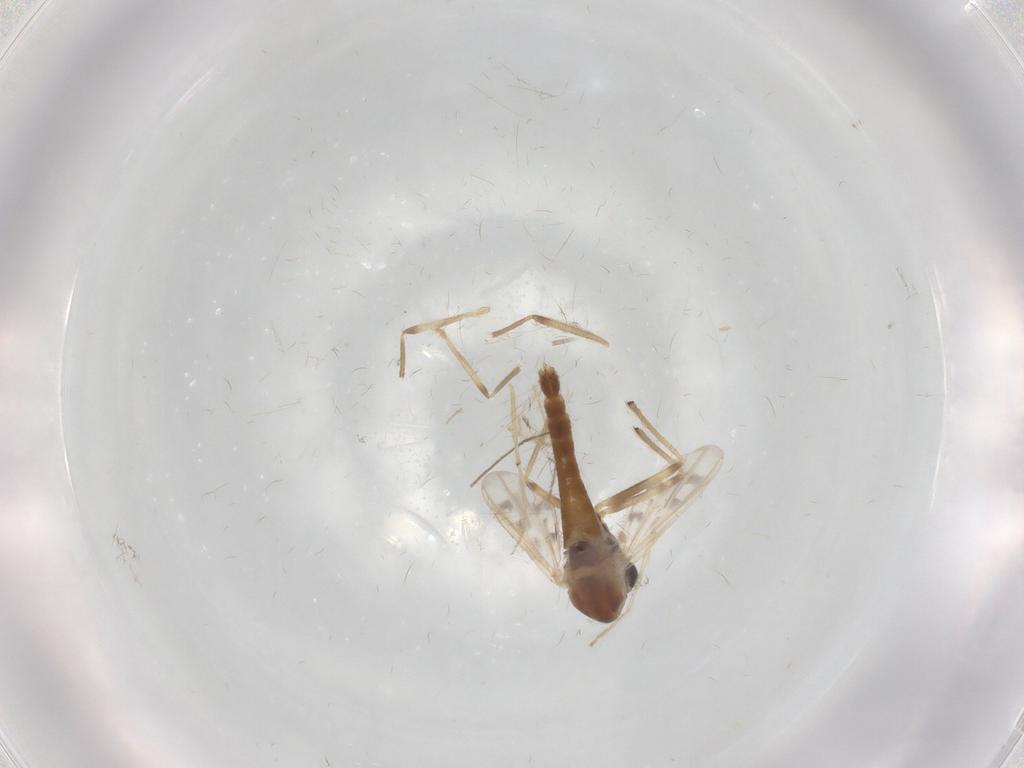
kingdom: Animalia
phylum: Arthropoda
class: Insecta
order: Diptera
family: Chironomidae
